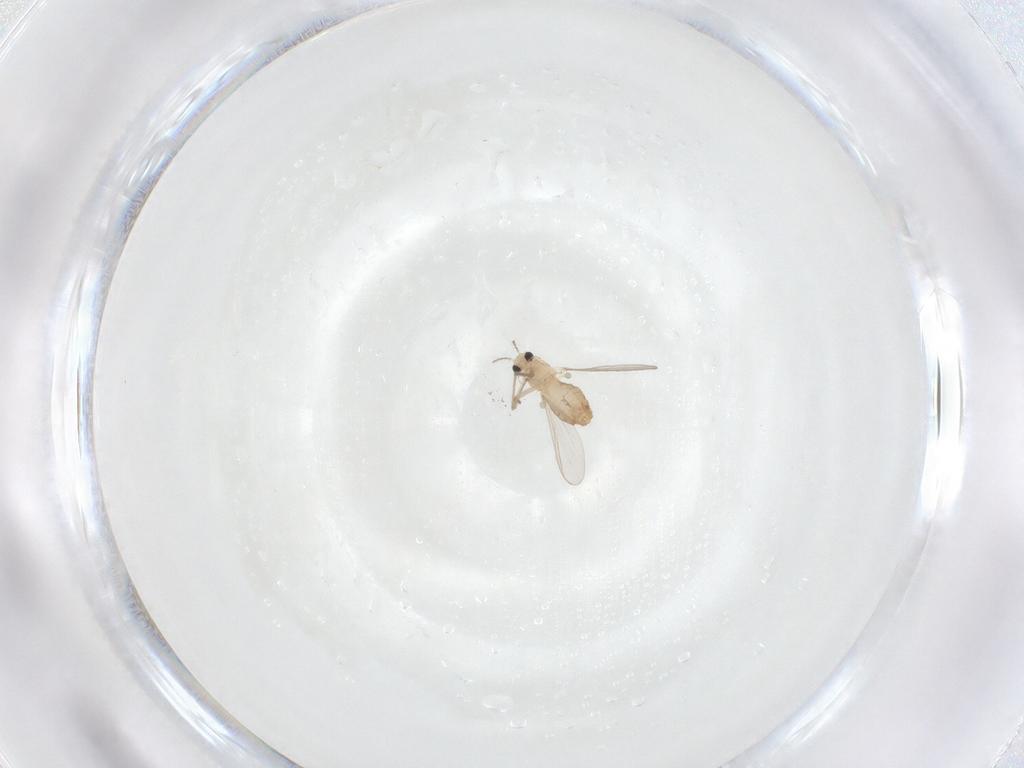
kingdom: Animalia
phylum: Arthropoda
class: Insecta
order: Diptera
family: Chironomidae
